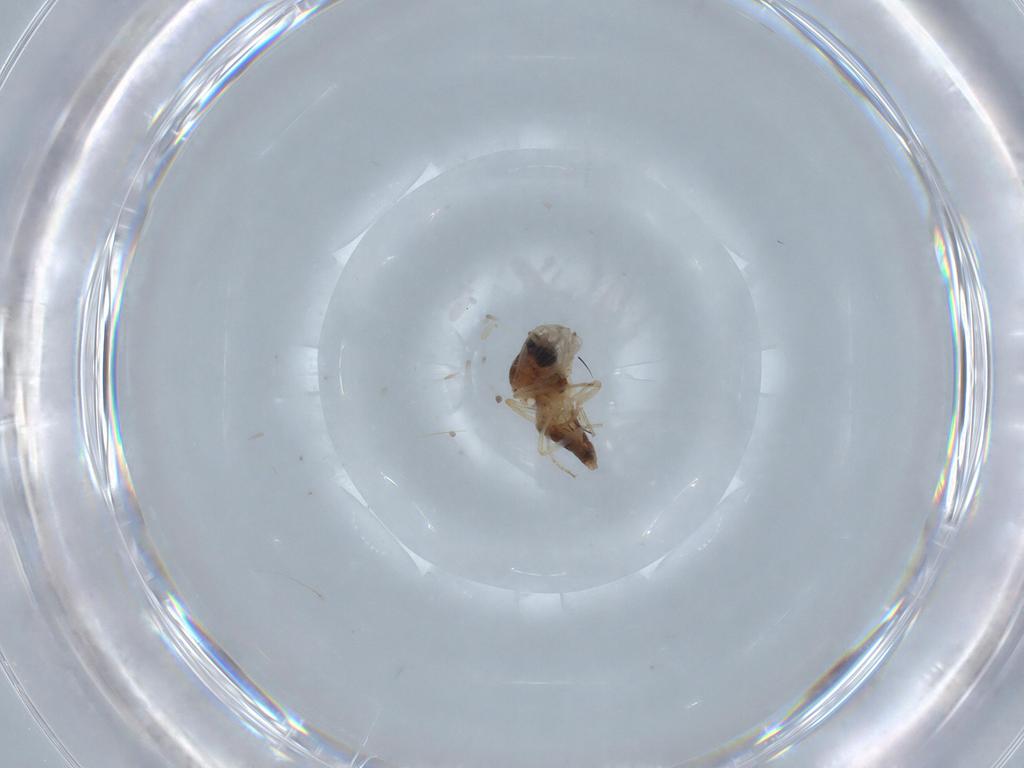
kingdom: Animalia
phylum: Arthropoda
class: Insecta
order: Diptera
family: Ceratopogonidae
